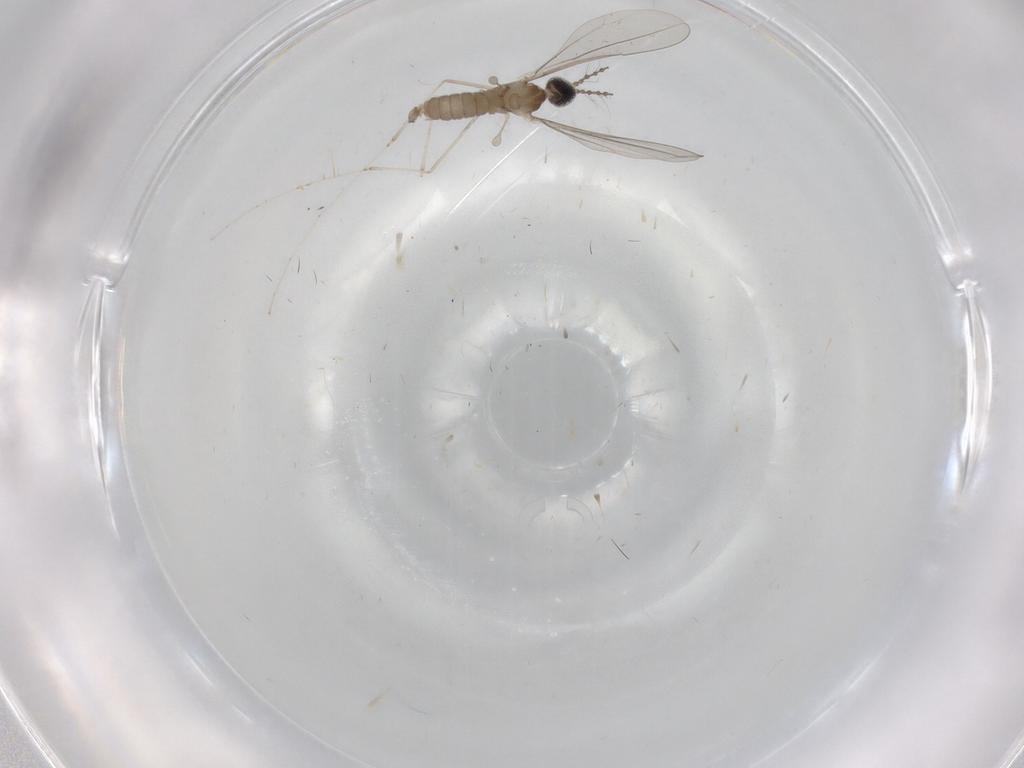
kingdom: Animalia
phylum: Arthropoda
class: Insecta
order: Diptera
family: Cecidomyiidae
